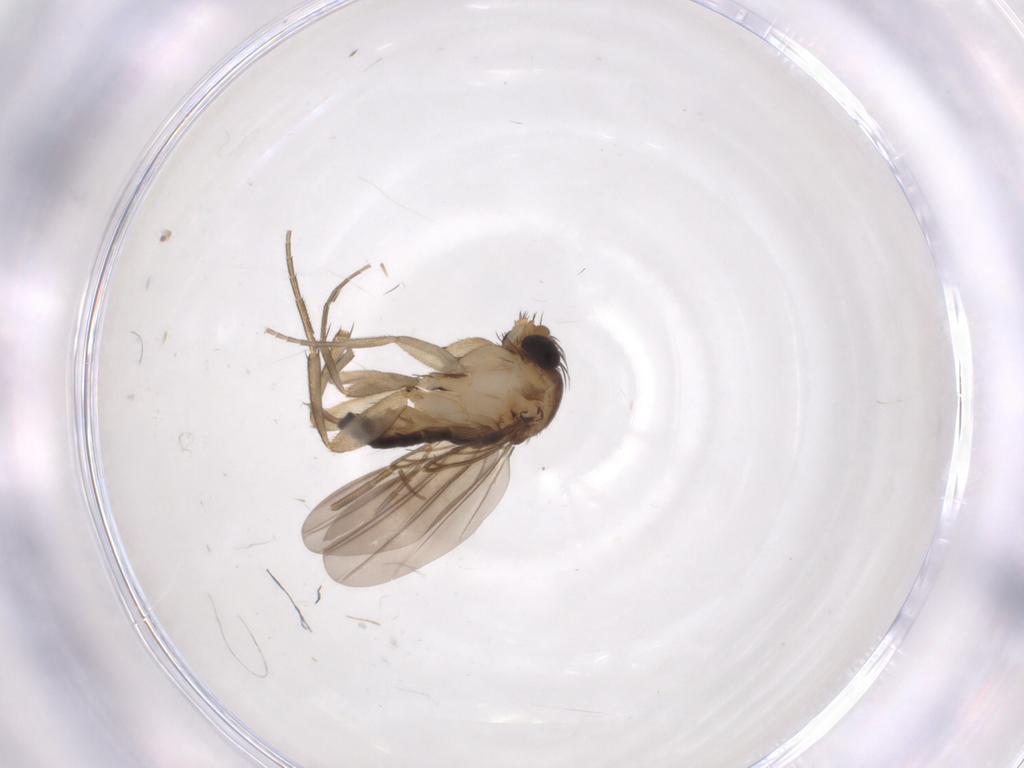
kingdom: Animalia
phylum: Arthropoda
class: Insecta
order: Diptera
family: Phoridae
